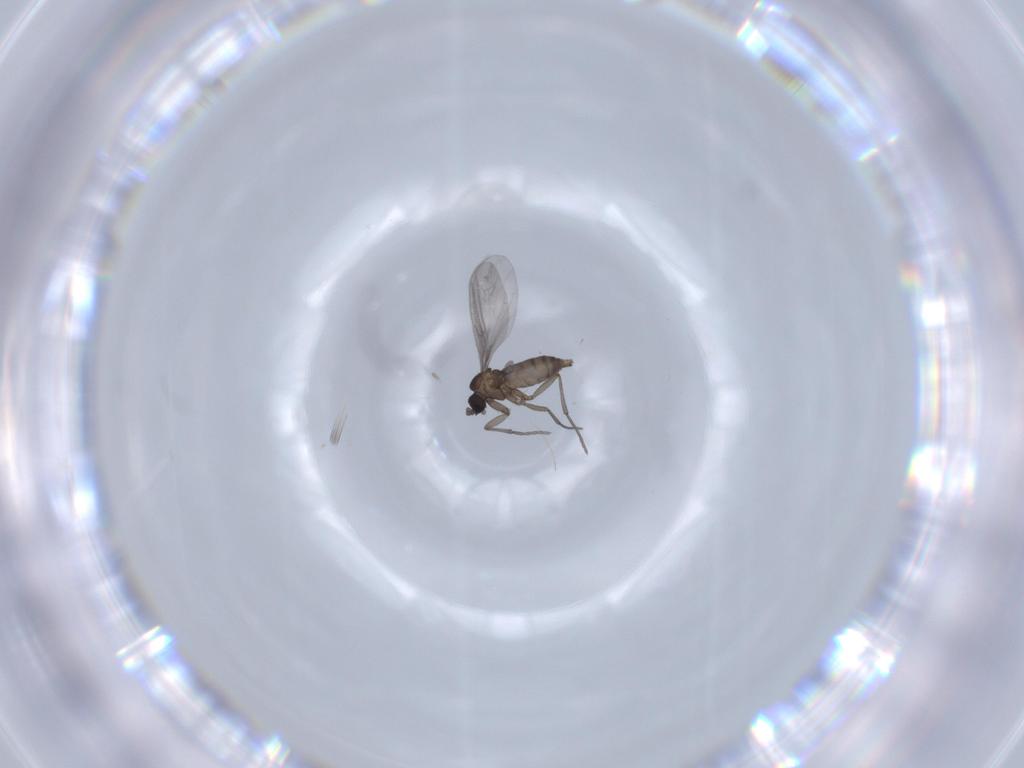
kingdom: Animalia
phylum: Arthropoda
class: Insecta
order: Diptera
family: Sciaridae
